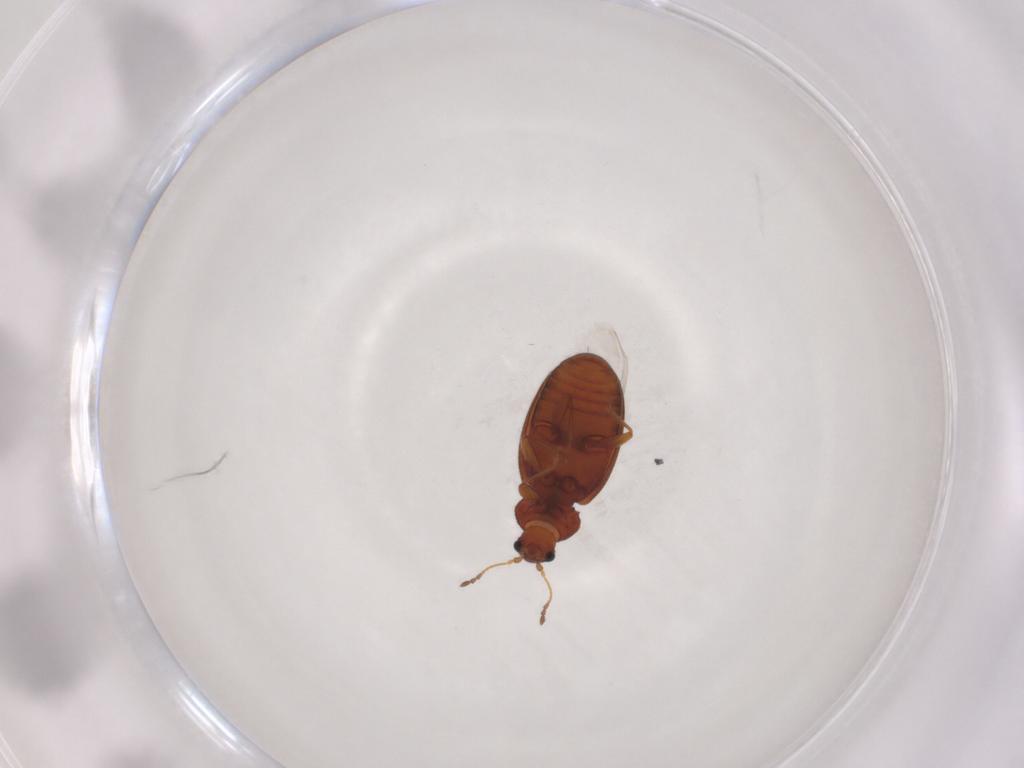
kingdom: Animalia
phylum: Arthropoda
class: Insecta
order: Coleoptera
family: Latridiidae
